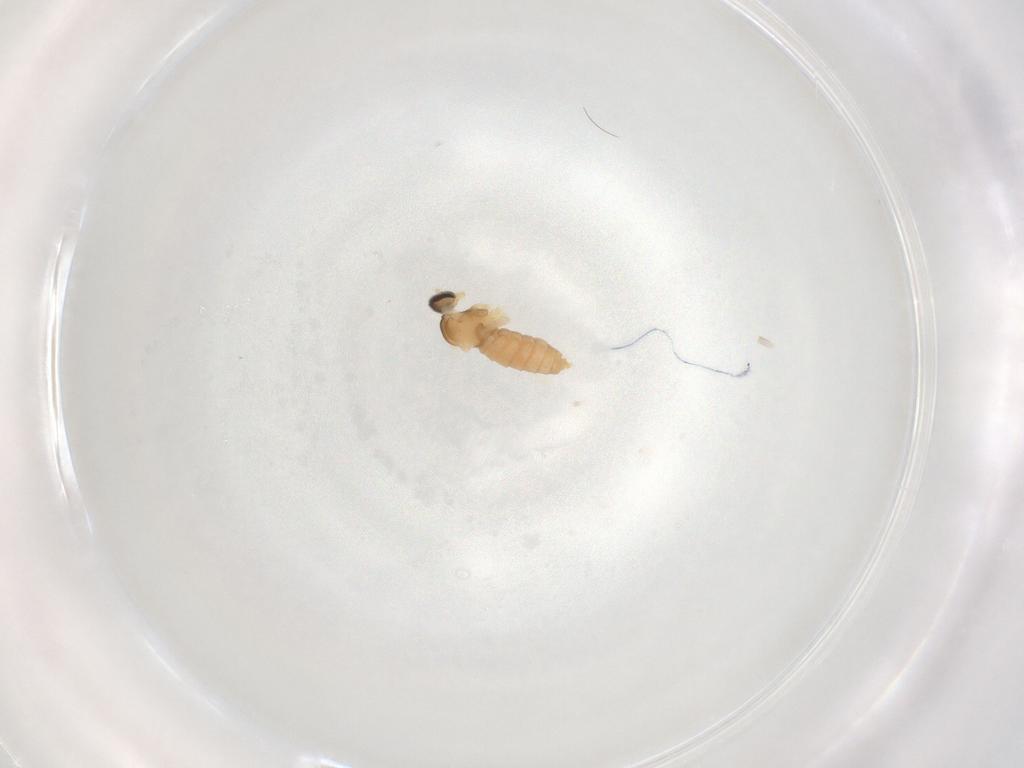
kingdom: Animalia
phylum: Arthropoda
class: Insecta
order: Diptera
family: Cecidomyiidae
